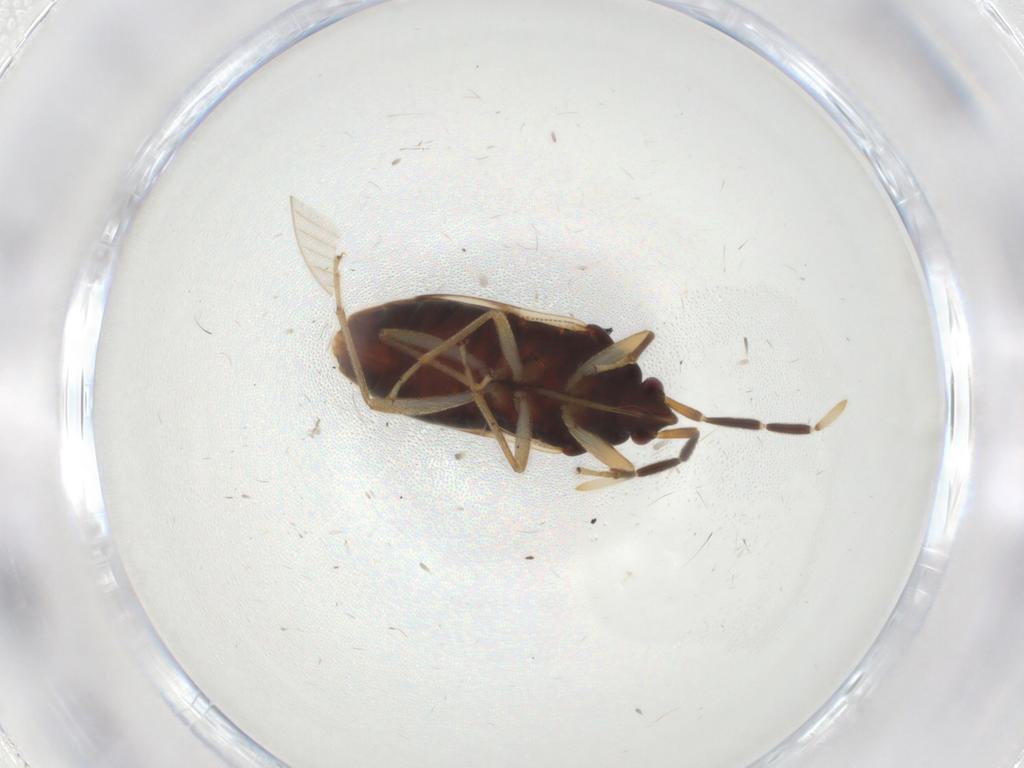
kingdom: Animalia
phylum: Arthropoda
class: Insecta
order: Hemiptera
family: Rhyparochromidae
